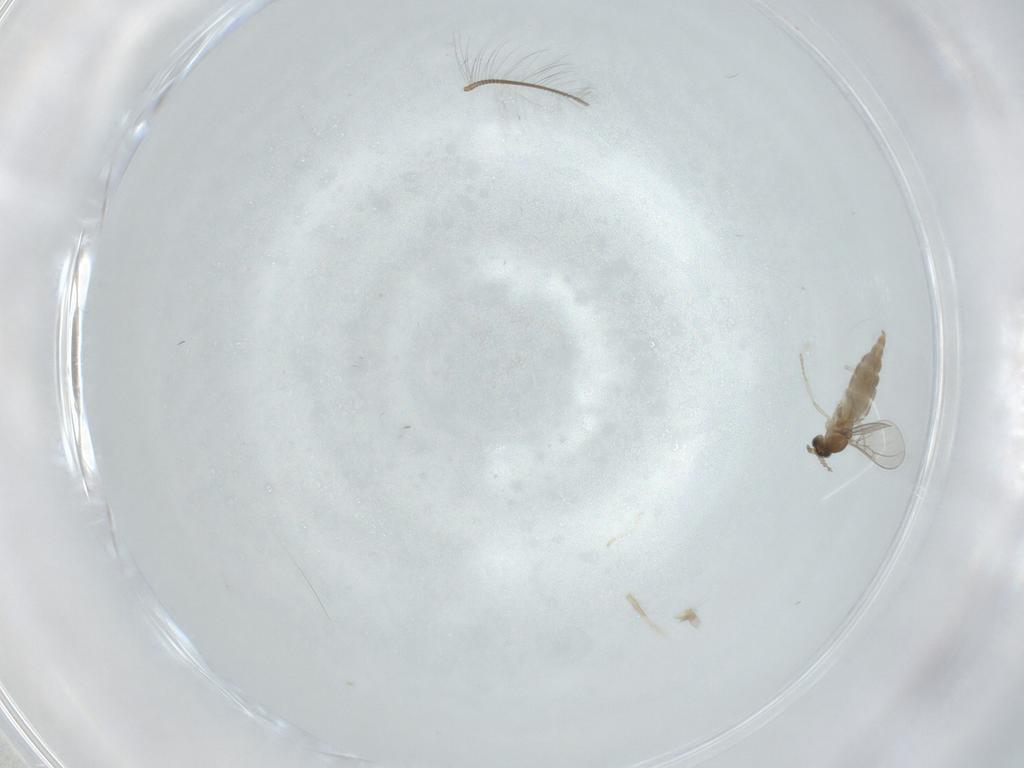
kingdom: Animalia
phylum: Arthropoda
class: Insecta
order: Diptera
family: Cecidomyiidae
